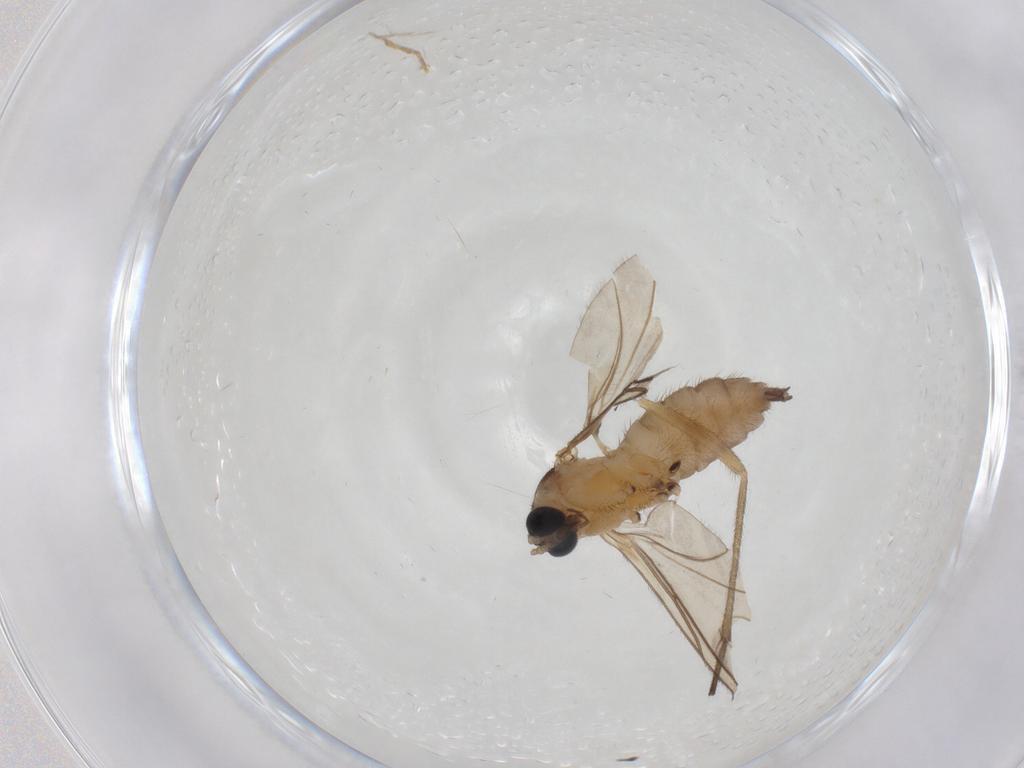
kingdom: Animalia
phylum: Arthropoda
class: Insecta
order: Diptera
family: Sciaridae
